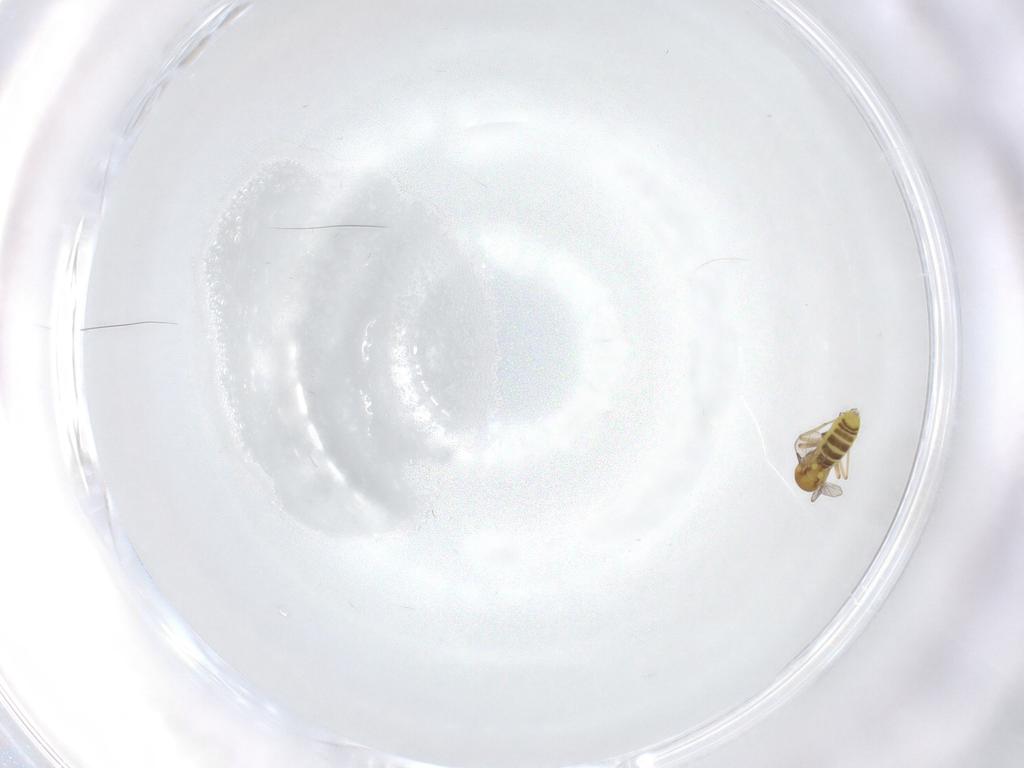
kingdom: Animalia
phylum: Arthropoda
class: Insecta
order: Diptera
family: Ceratopogonidae
